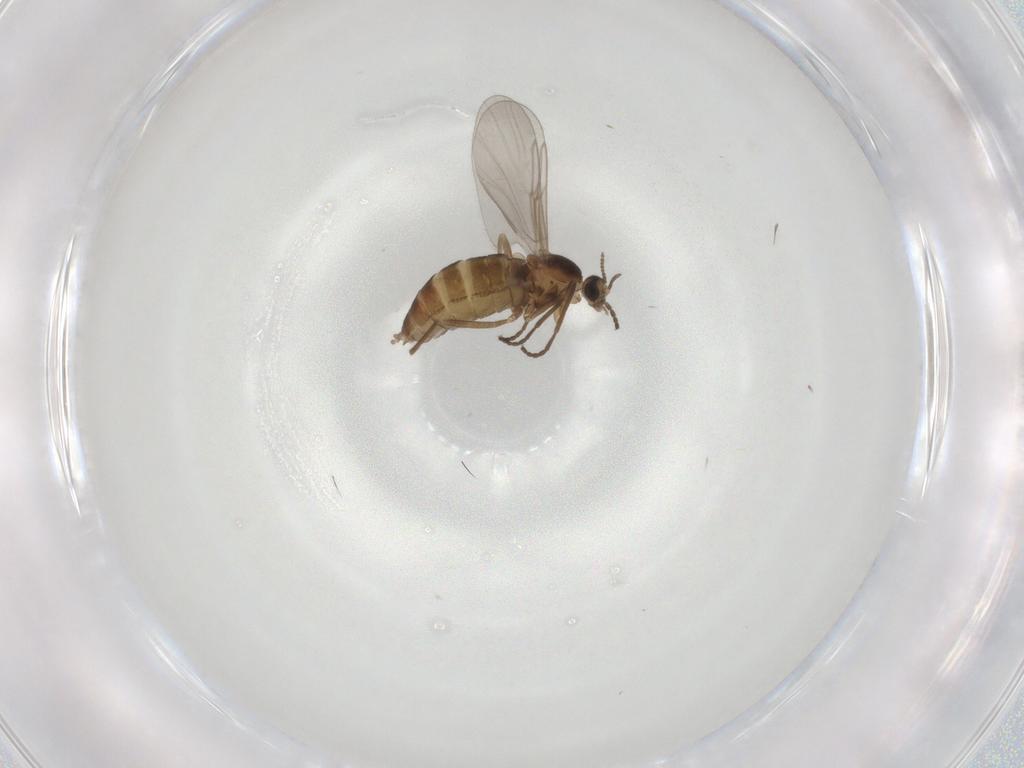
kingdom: Animalia
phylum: Arthropoda
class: Insecta
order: Diptera
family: Cecidomyiidae
